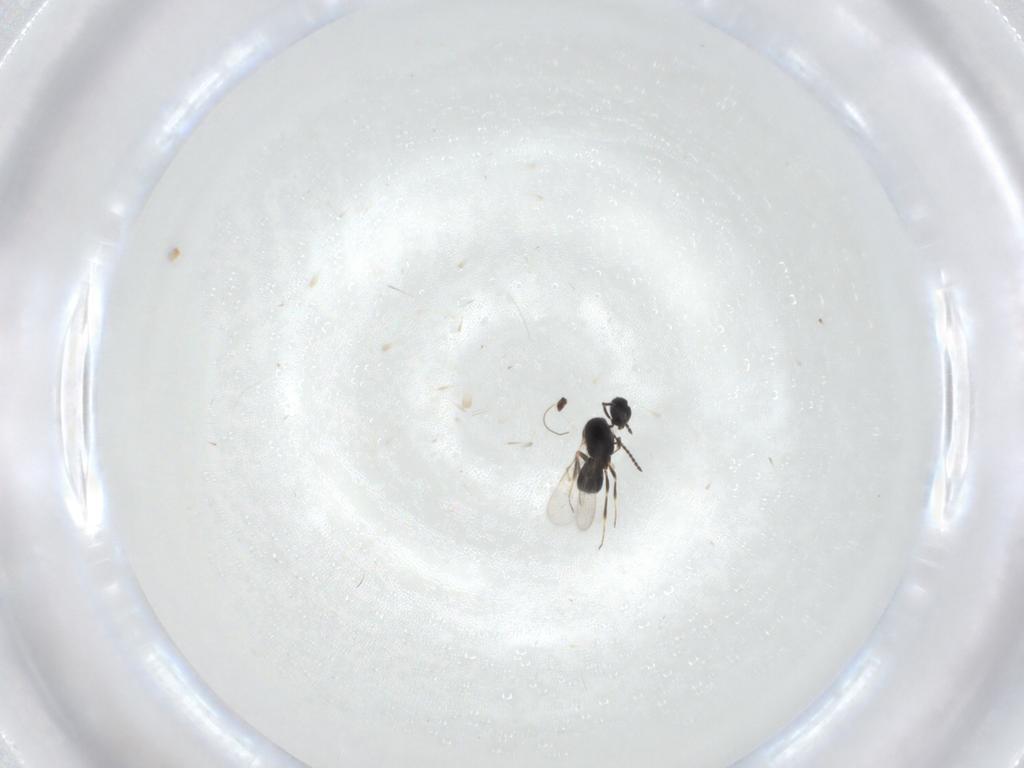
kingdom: Animalia
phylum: Arthropoda
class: Insecta
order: Hymenoptera
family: Scelionidae
